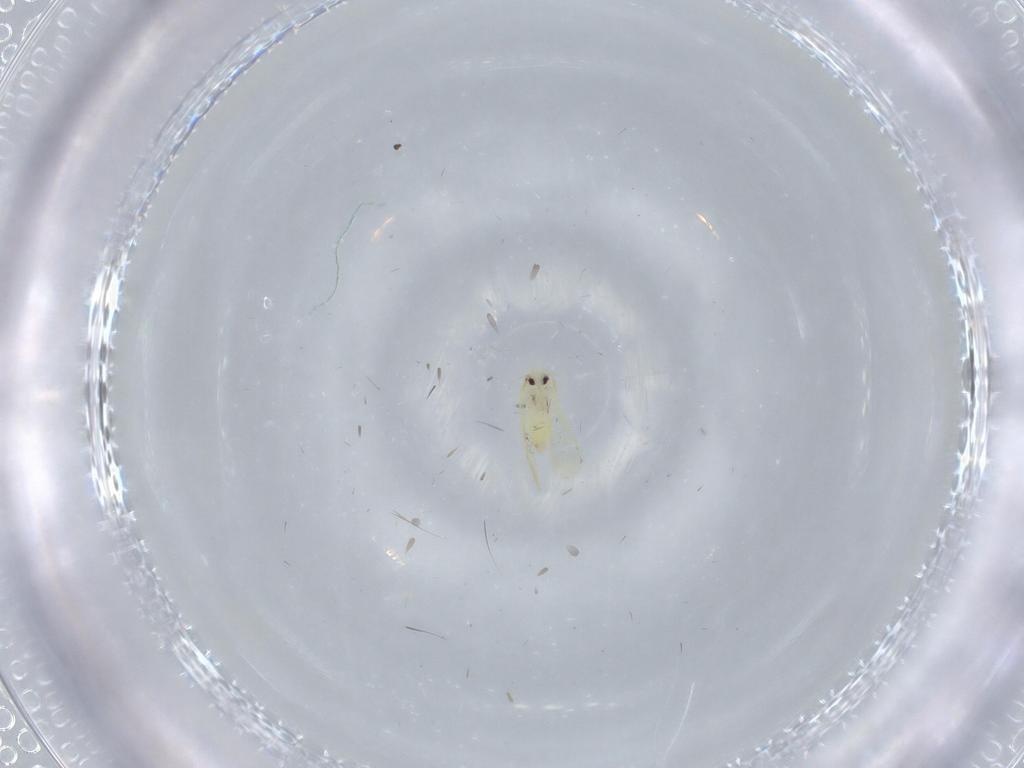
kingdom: Animalia
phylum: Arthropoda
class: Insecta
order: Hemiptera
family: Aleyrodidae
